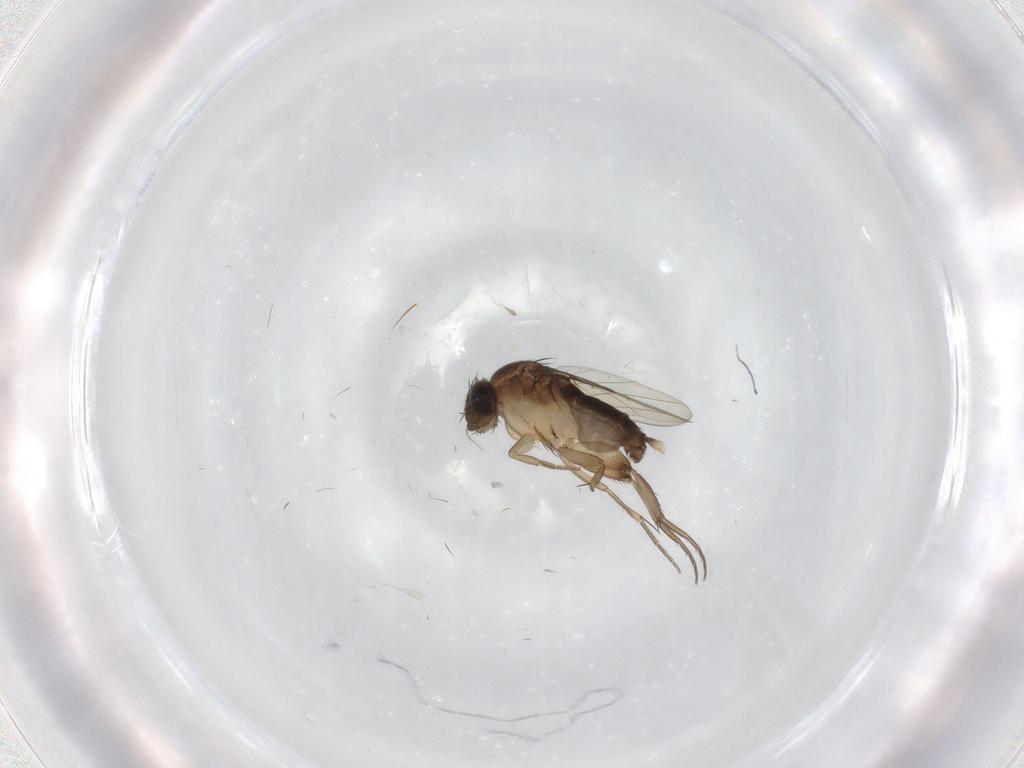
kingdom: Animalia
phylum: Arthropoda
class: Insecta
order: Diptera
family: Phoridae
